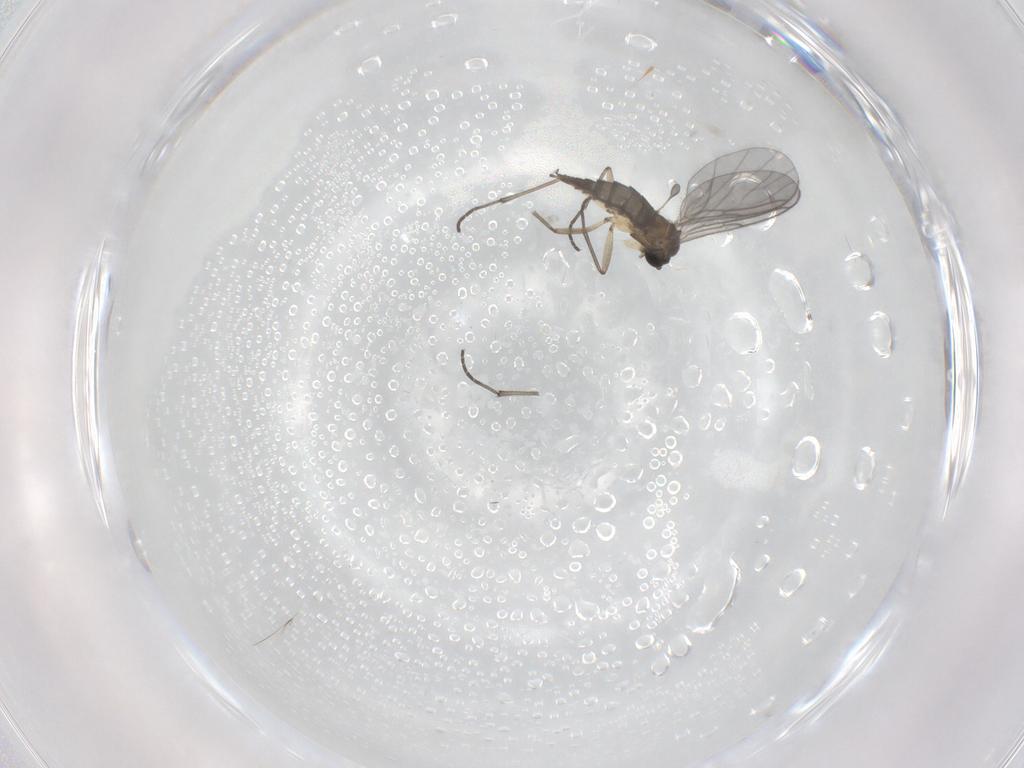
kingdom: Animalia
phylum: Arthropoda
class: Insecta
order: Diptera
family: Sciaridae
